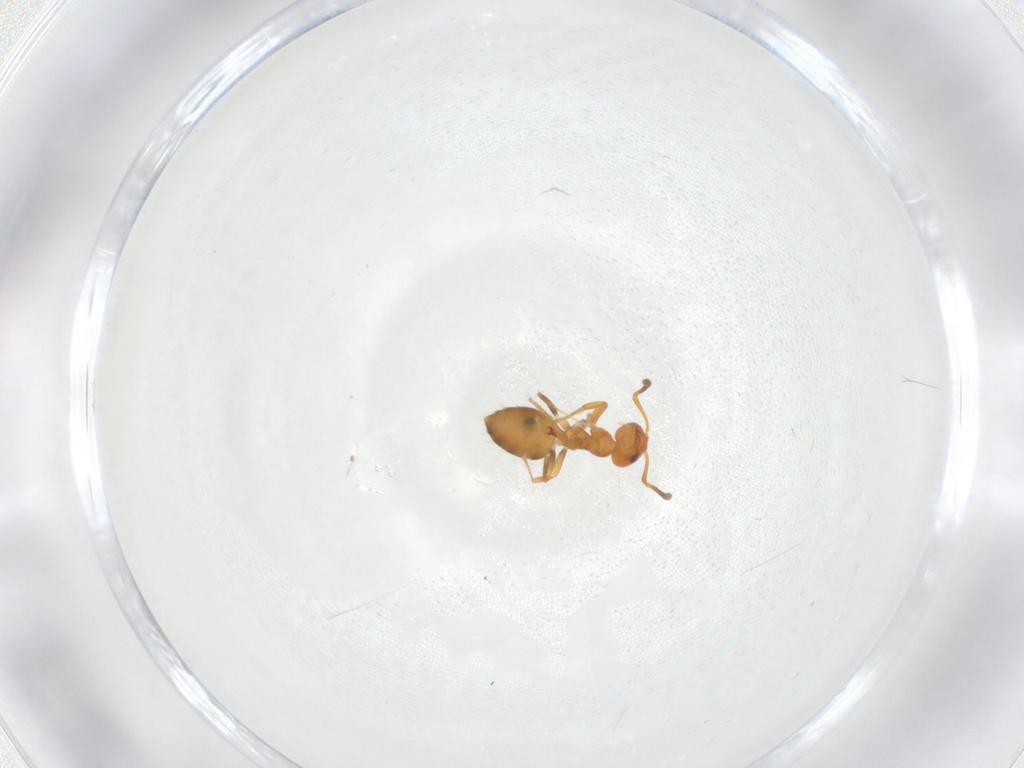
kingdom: Animalia
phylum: Arthropoda
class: Insecta
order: Hymenoptera
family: Formicidae
